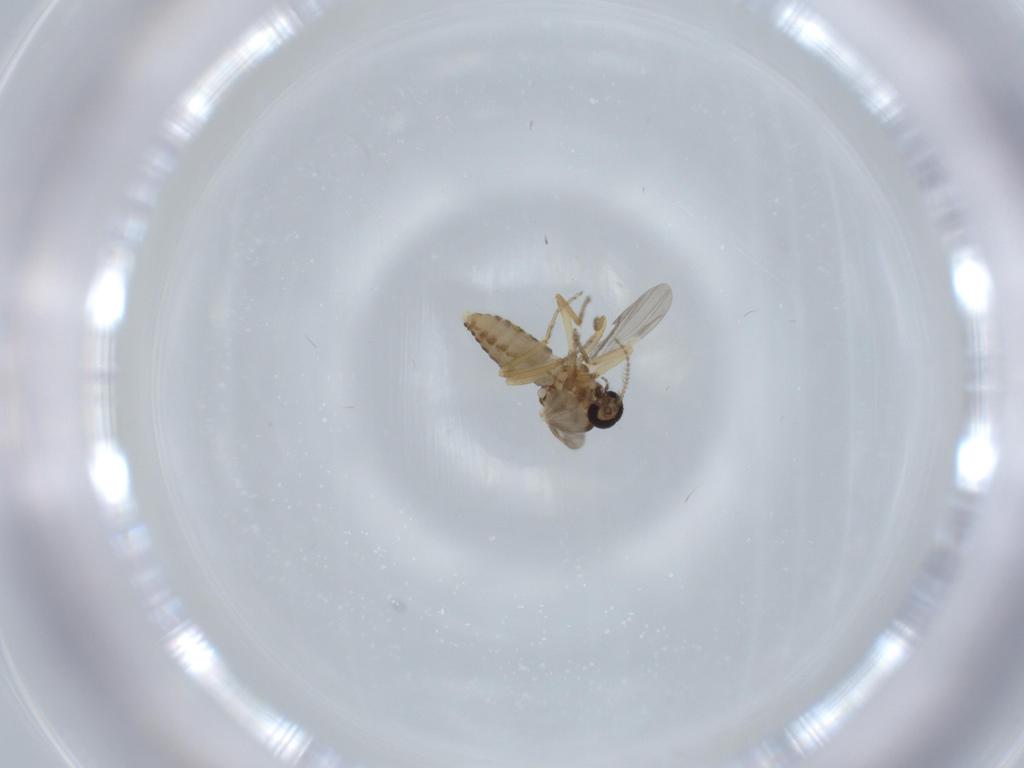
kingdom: Animalia
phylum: Arthropoda
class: Insecta
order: Diptera
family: Ceratopogonidae
